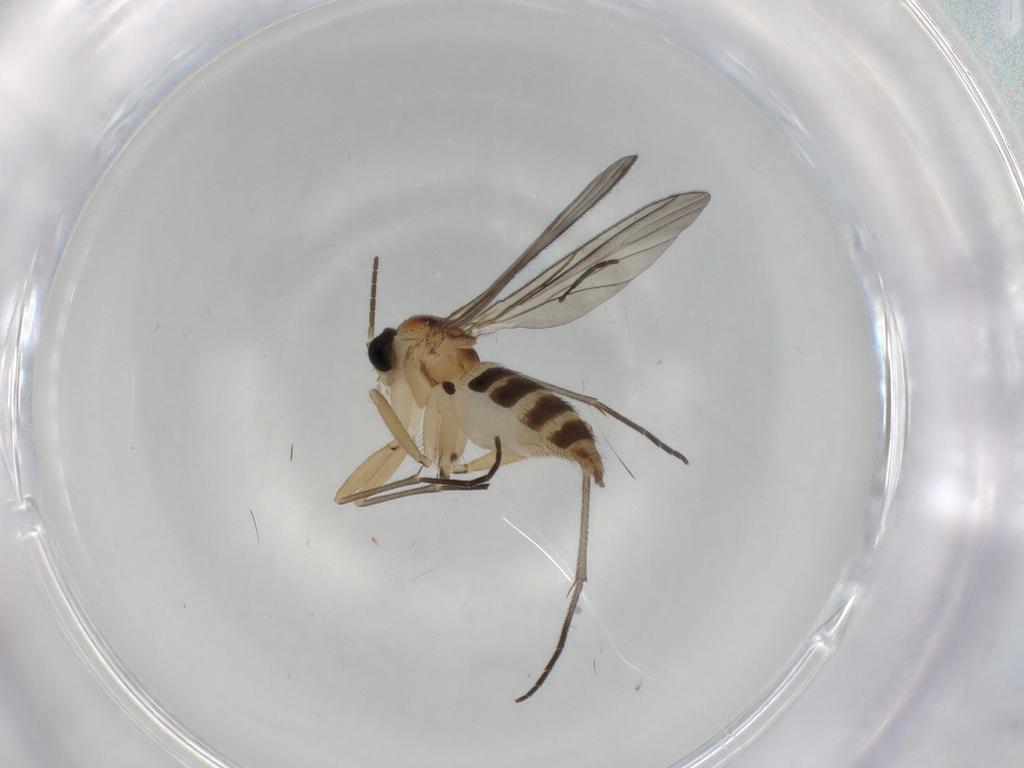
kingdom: Animalia
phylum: Arthropoda
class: Insecta
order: Diptera
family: Sciaridae
